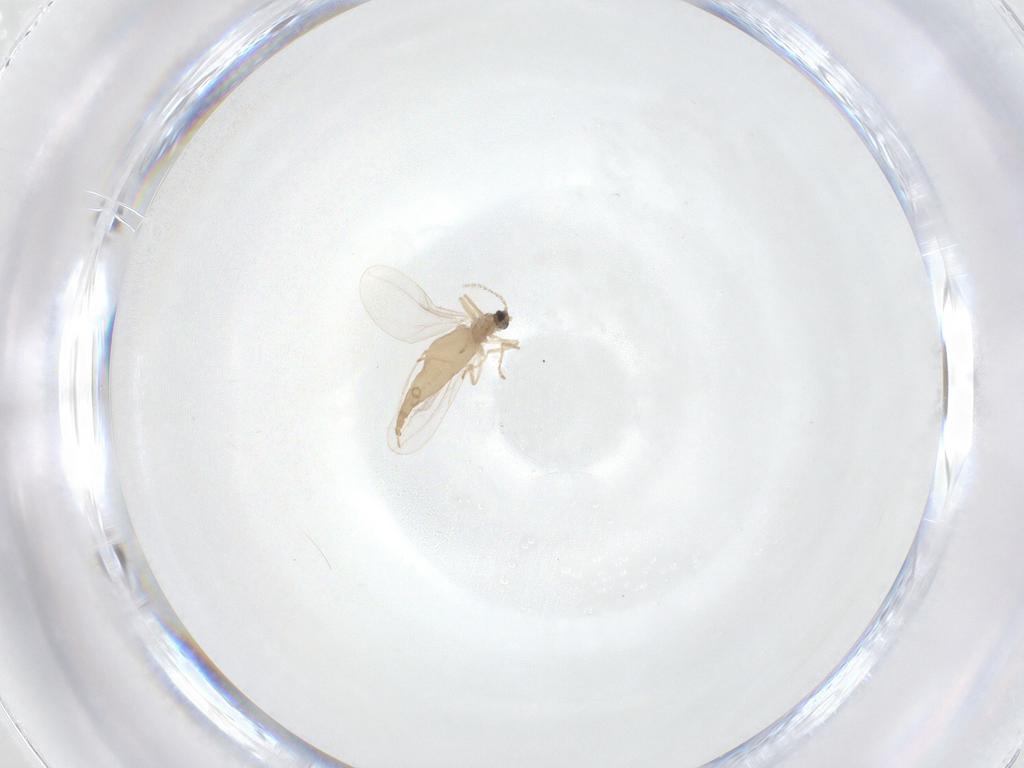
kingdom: Animalia
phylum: Arthropoda
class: Insecta
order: Diptera
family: Cecidomyiidae
